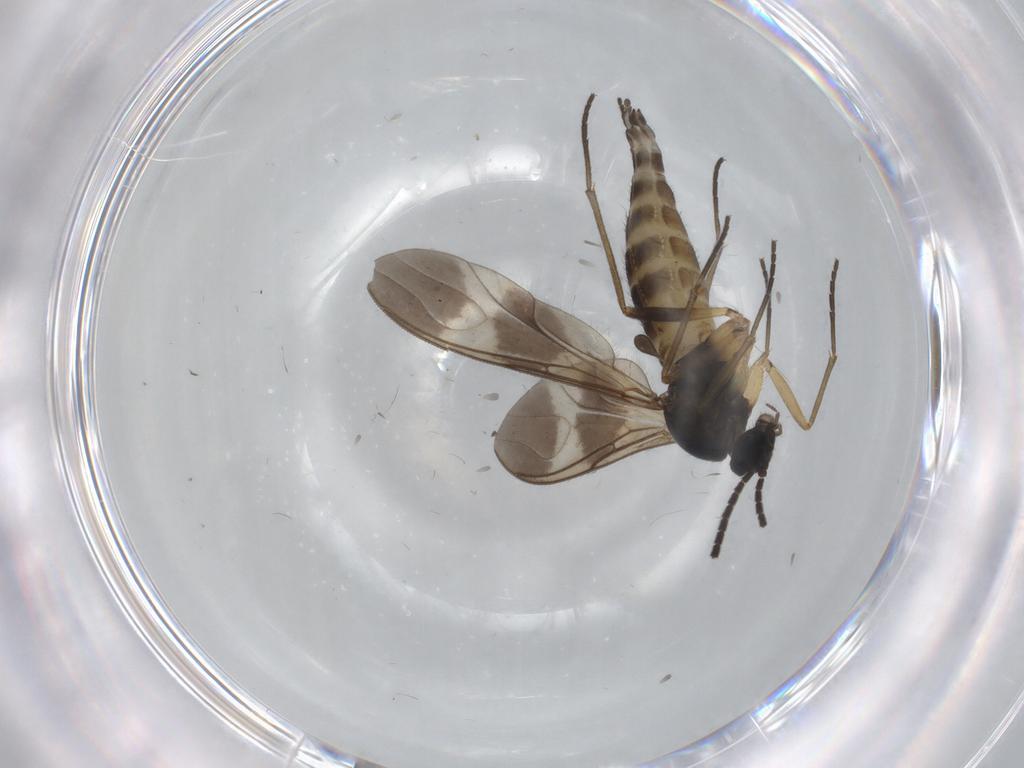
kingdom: Animalia
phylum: Arthropoda
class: Insecta
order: Diptera
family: Sciaridae
